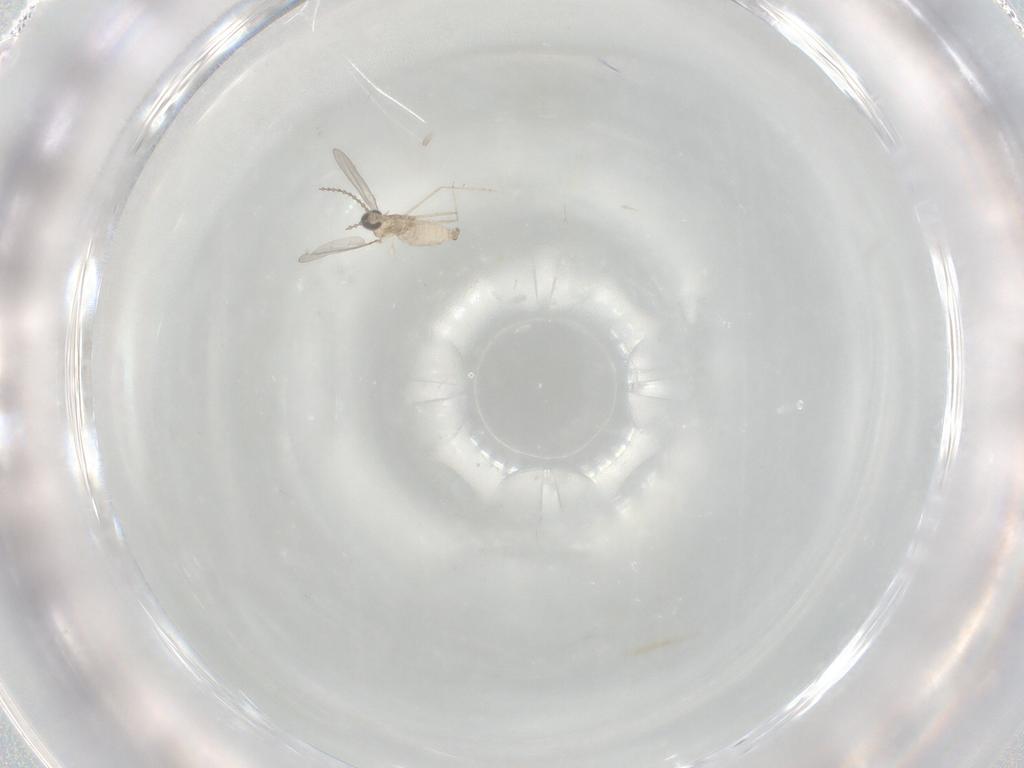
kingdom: Animalia
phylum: Arthropoda
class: Insecta
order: Diptera
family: Cecidomyiidae
